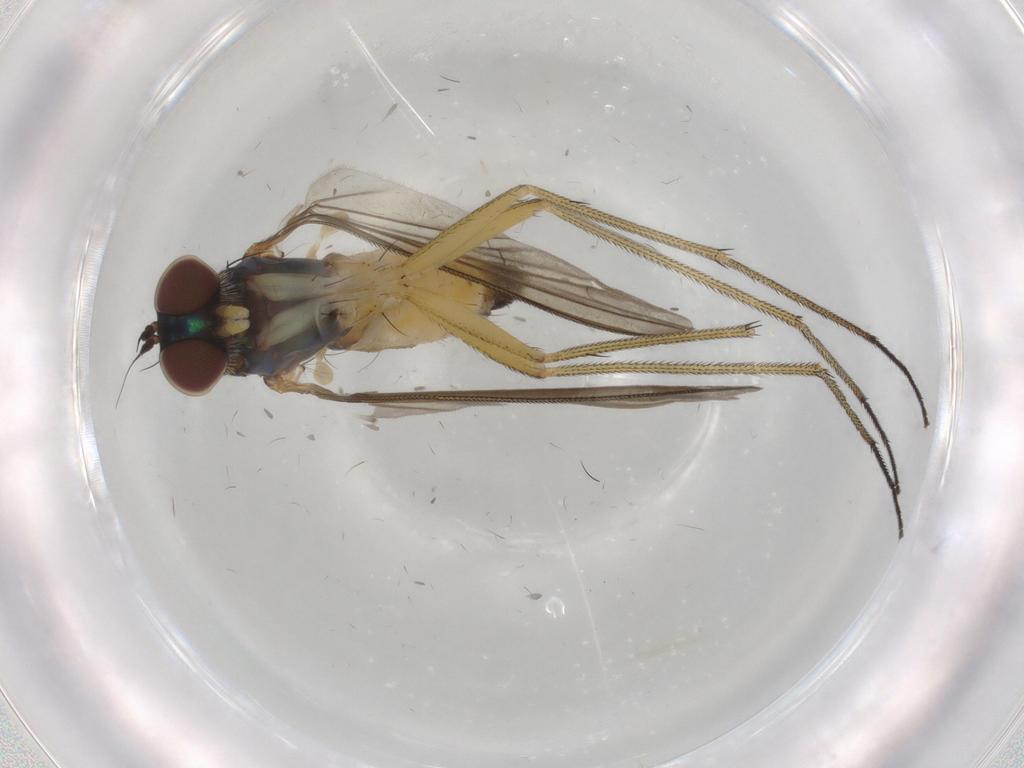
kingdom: Animalia
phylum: Arthropoda
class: Insecta
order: Diptera
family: Dolichopodidae
